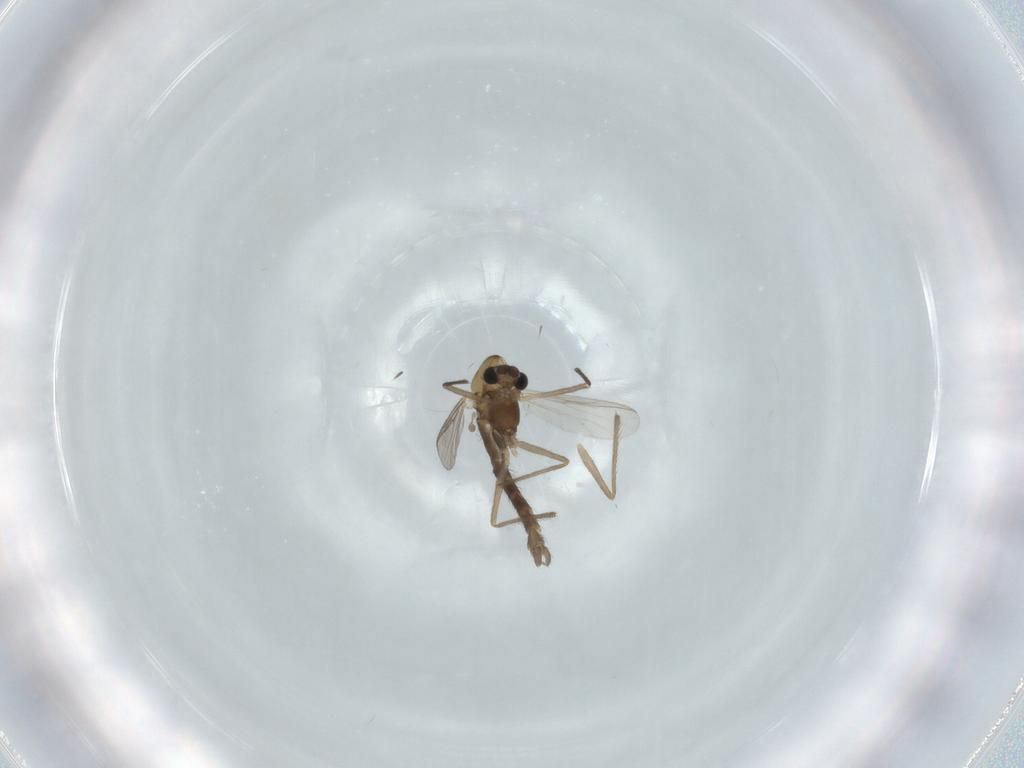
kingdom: Animalia
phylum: Arthropoda
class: Insecta
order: Diptera
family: Chironomidae
